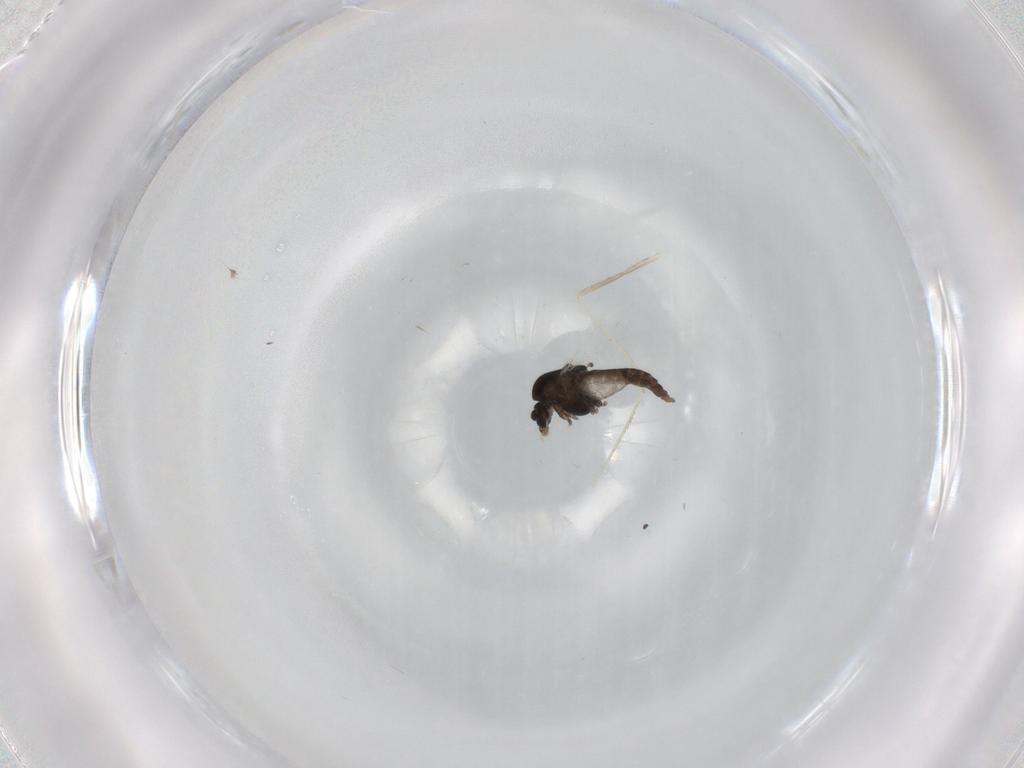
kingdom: Animalia
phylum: Arthropoda
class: Insecta
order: Diptera
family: Chironomidae
